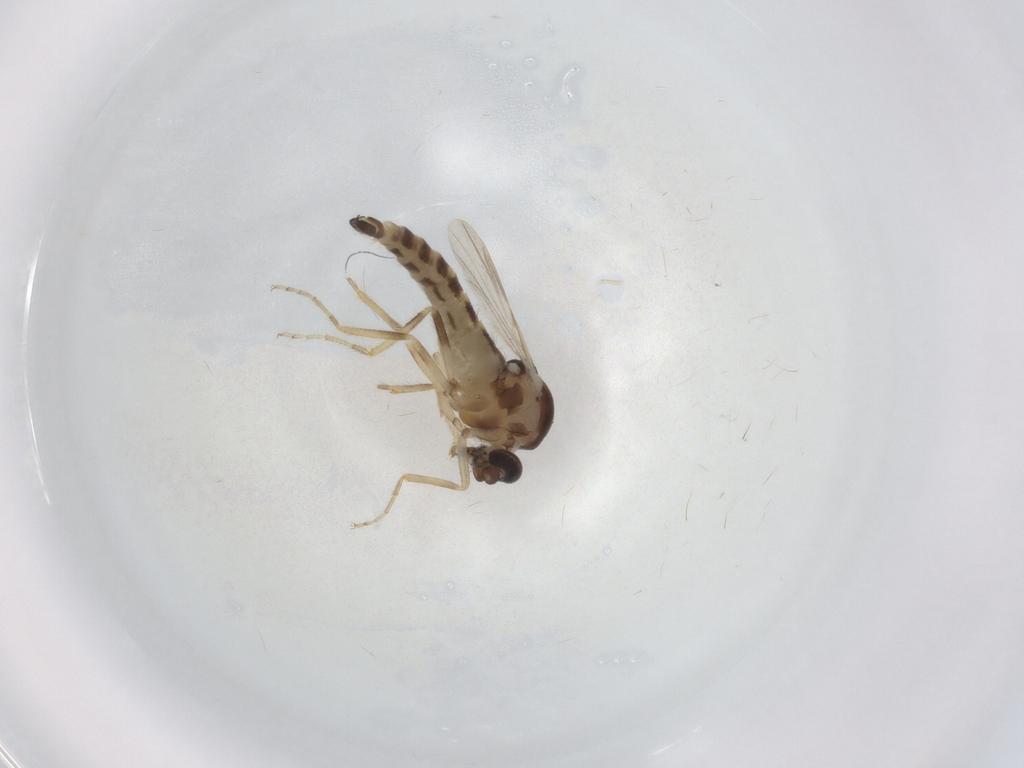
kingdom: Animalia
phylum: Arthropoda
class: Insecta
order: Diptera
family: Ceratopogonidae
